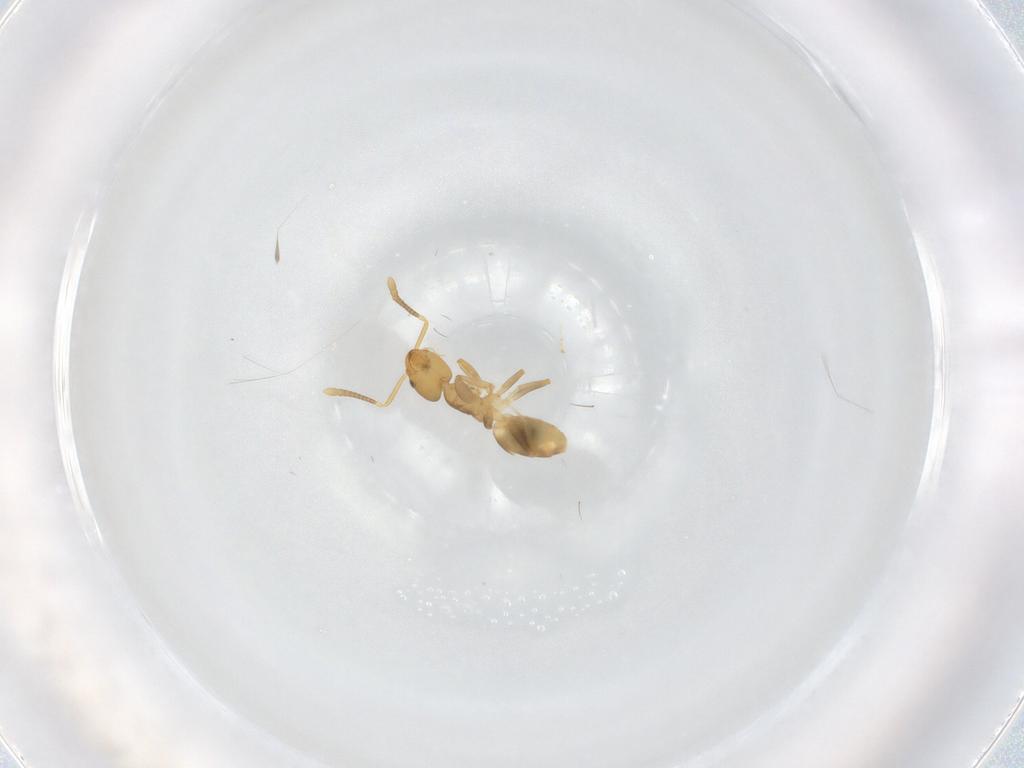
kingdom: Animalia
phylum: Arthropoda
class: Insecta
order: Hymenoptera
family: Formicidae
